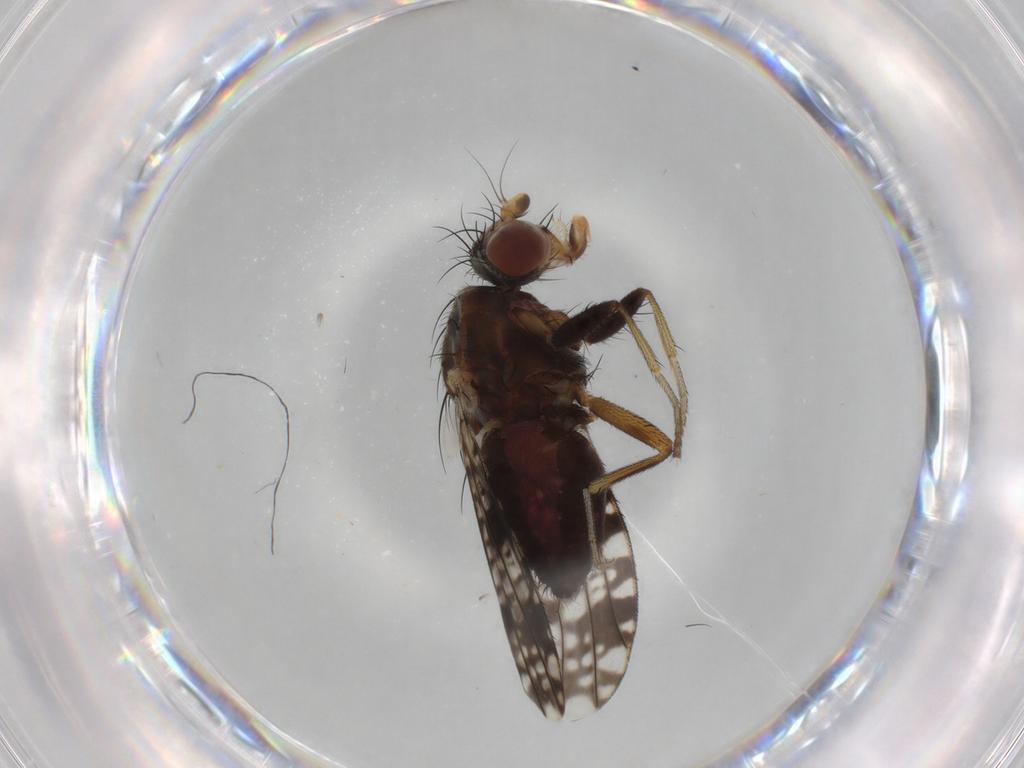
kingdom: Animalia
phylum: Arthropoda
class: Insecta
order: Diptera
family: Tephritidae
